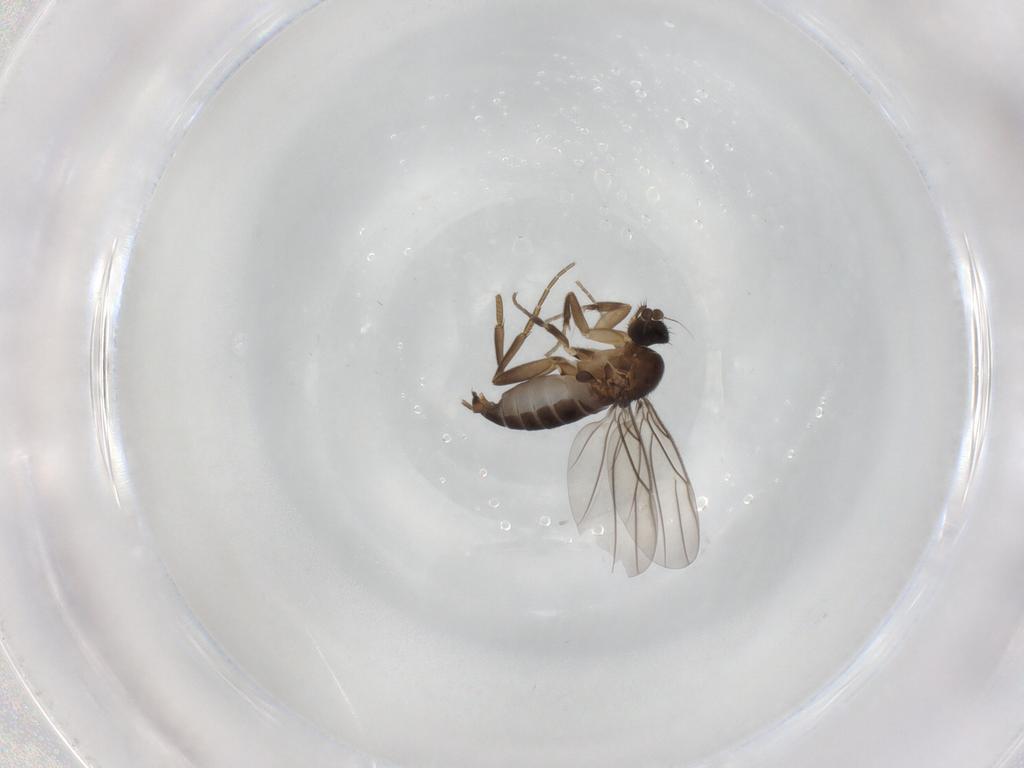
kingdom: Animalia
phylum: Arthropoda
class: Insecta
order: Diptera
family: Phoridae
